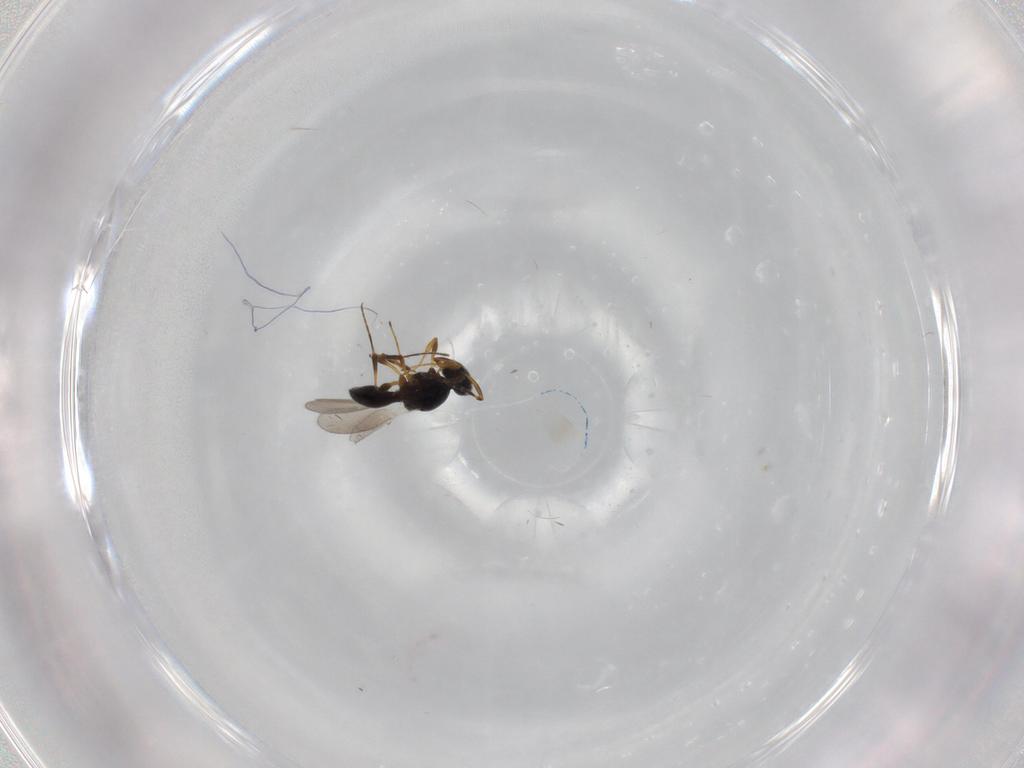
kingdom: Animalia
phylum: Arthropoda
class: Insecta
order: Hymenoptera
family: Platygastridae
